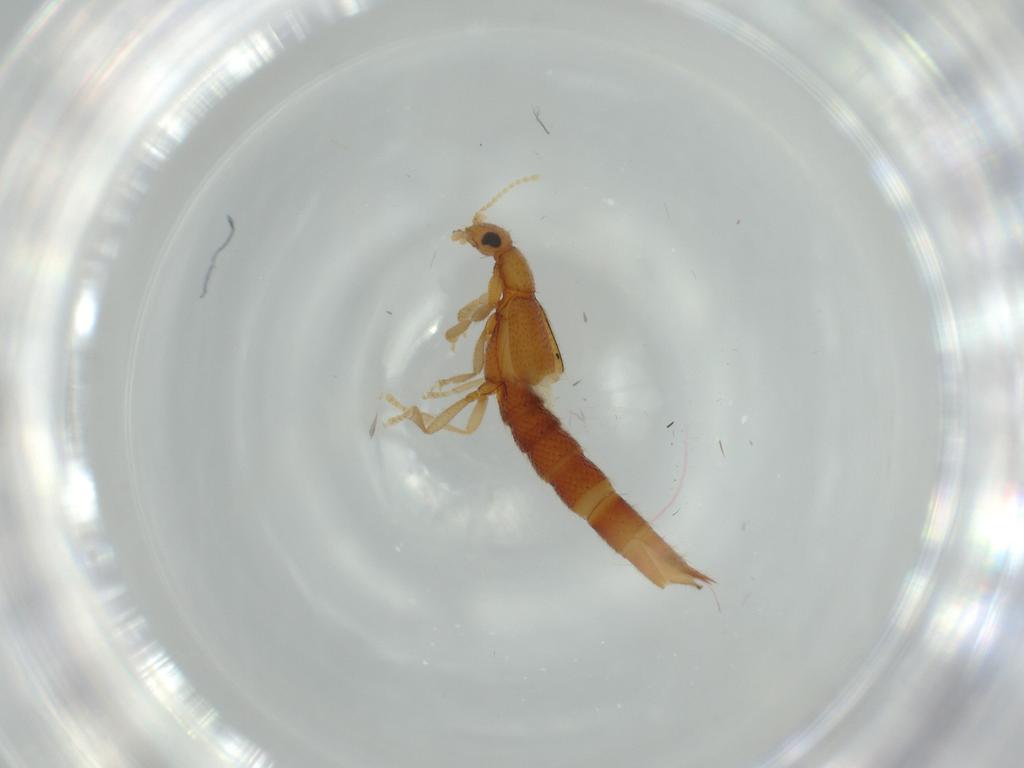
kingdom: Animalia
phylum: Arthropoda
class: Insecta
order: Coleoptera
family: Staphylinidae
